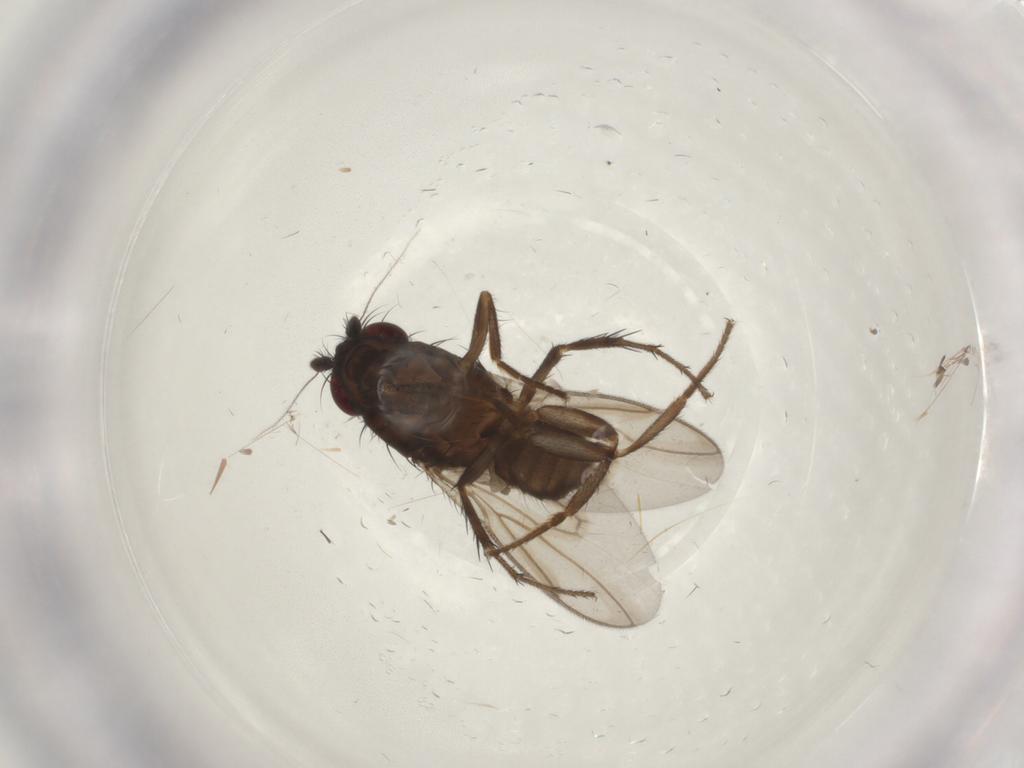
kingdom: Animalia
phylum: Arthropoda
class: Insecta
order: Diptera
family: Sphaeroceridae
